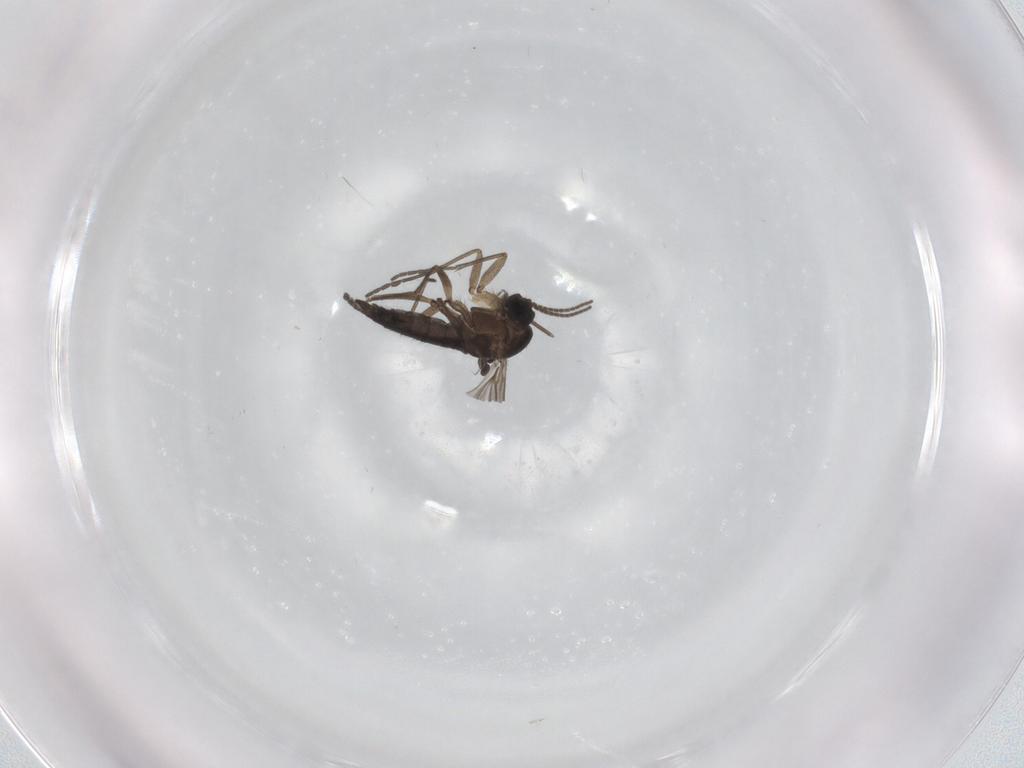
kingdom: Animalia
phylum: Arthropoda
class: Insecta
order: Diptera
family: Sciaridae
